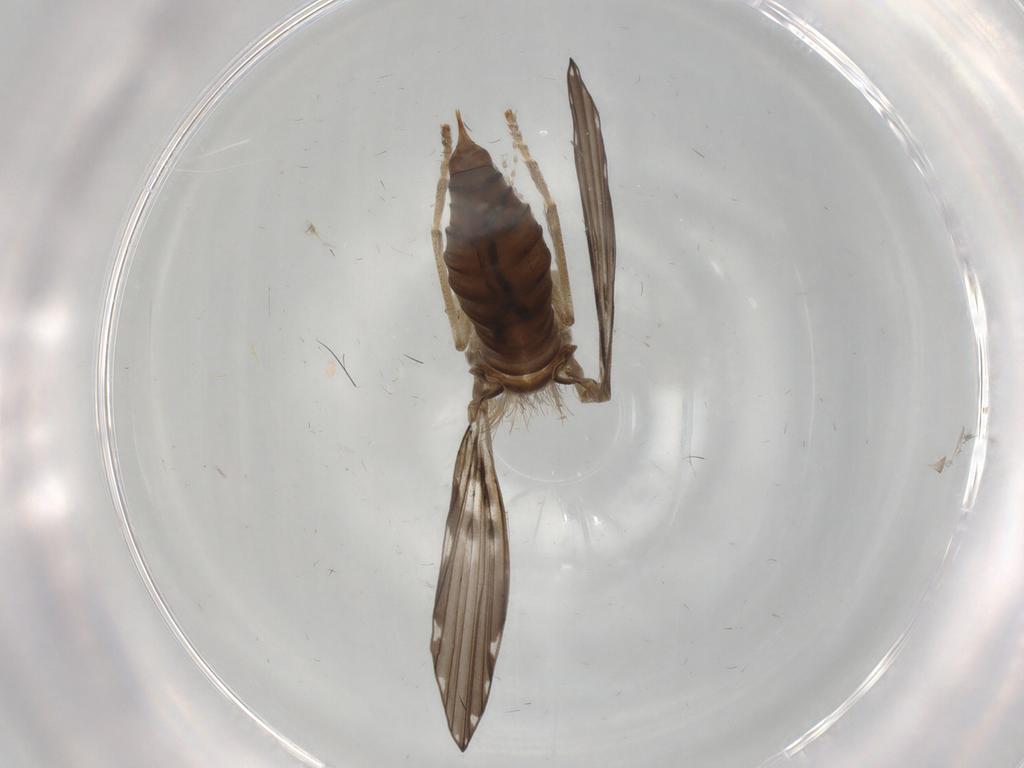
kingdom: Animalia
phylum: Arthropoda
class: Insecta
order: Diptera
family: Psychodidae
